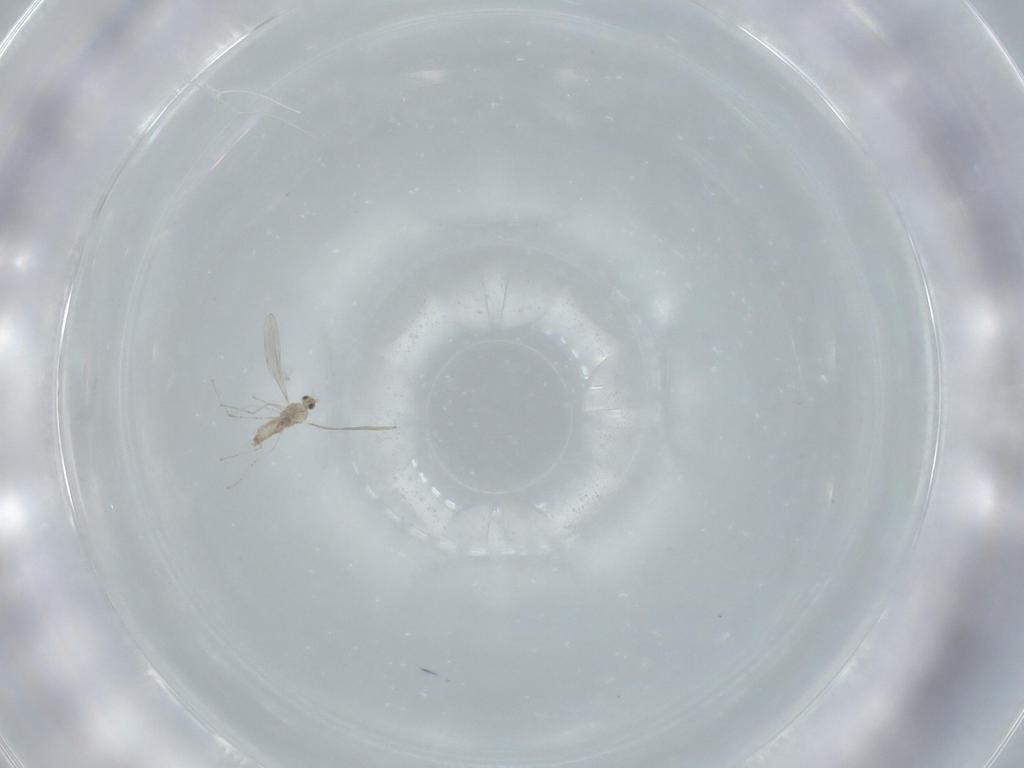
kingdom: Animalia
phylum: Arthropoda
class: Insecta
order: Diptera
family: Cecidomyiidae
